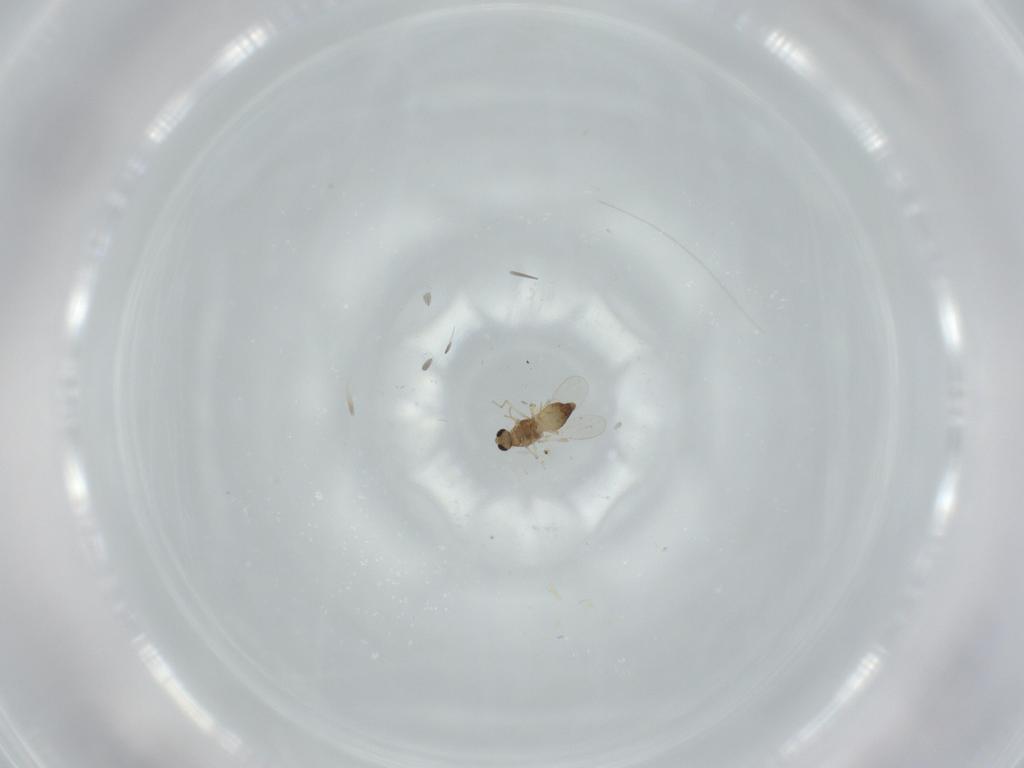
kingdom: Animalia
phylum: Arthropoda
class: Insecta
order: Diptera
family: Chironomidae
